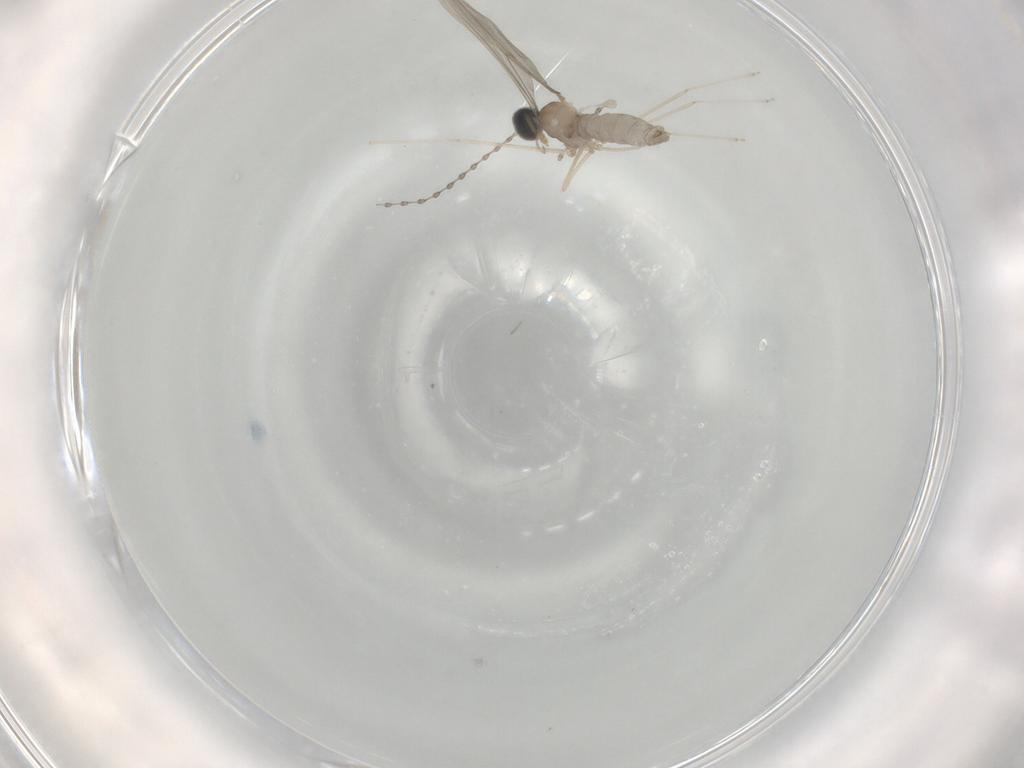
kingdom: Animalia
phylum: Arthropoda
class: Insecta
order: Diptera
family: Cecidomyiidae
